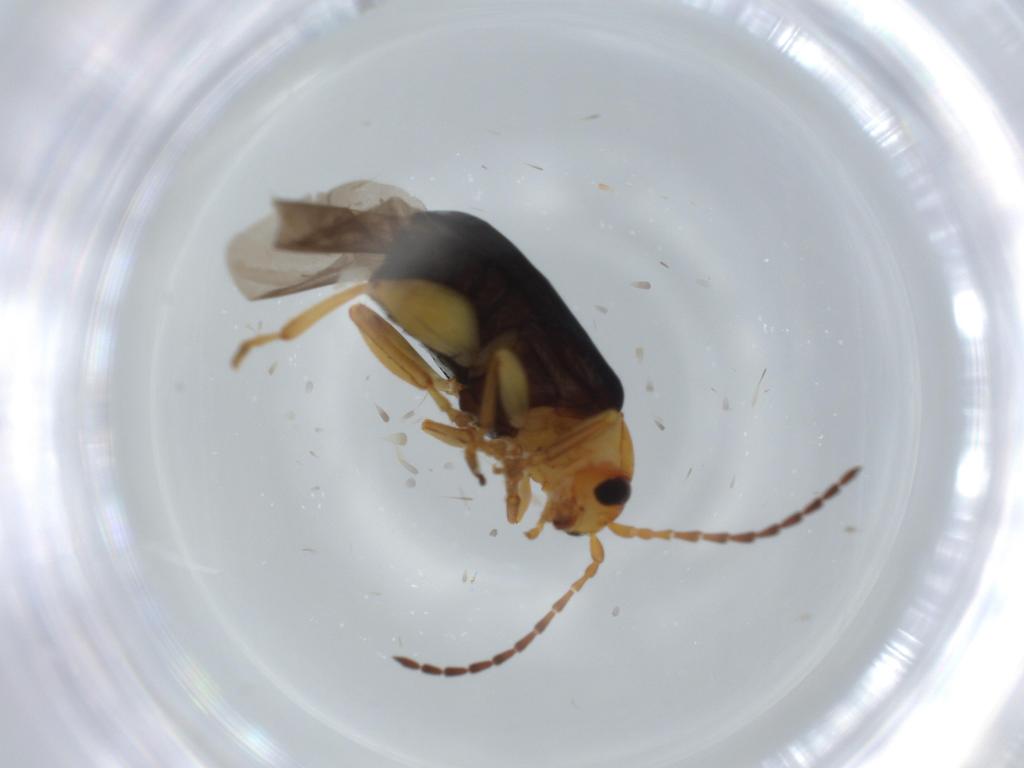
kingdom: Animalia
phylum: Arthropoda
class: Insecta
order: Coleoptera
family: Chrysomelidae
